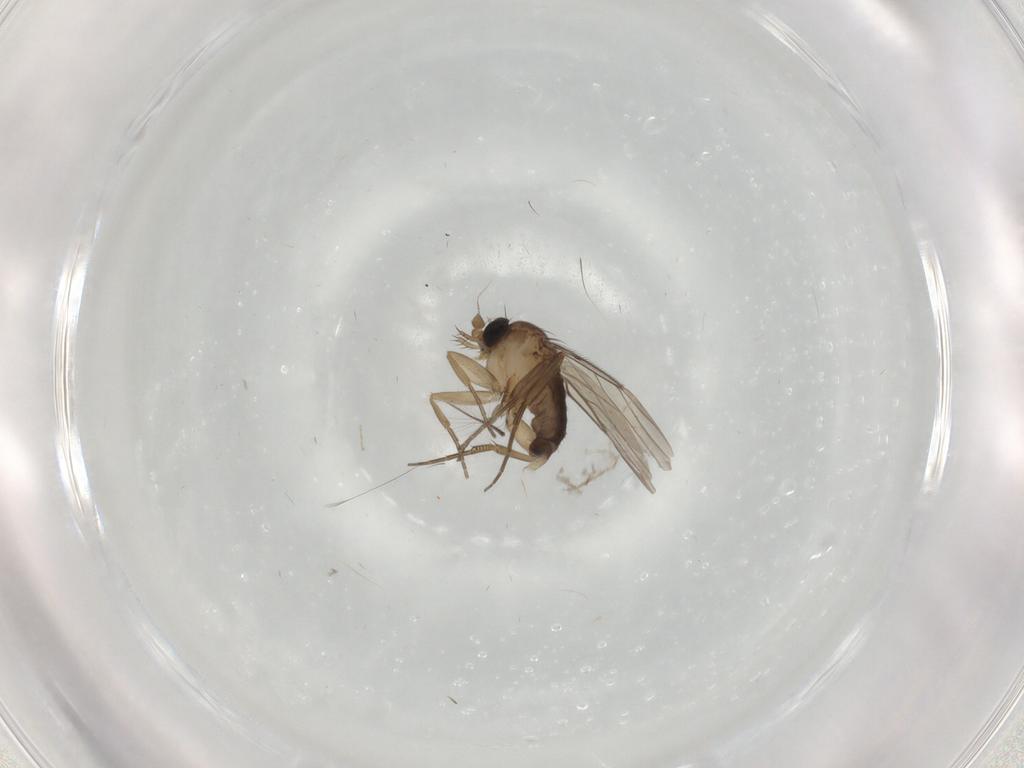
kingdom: Animalia
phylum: Arthropoda
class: Insecta
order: Diptera
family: Phoridae
